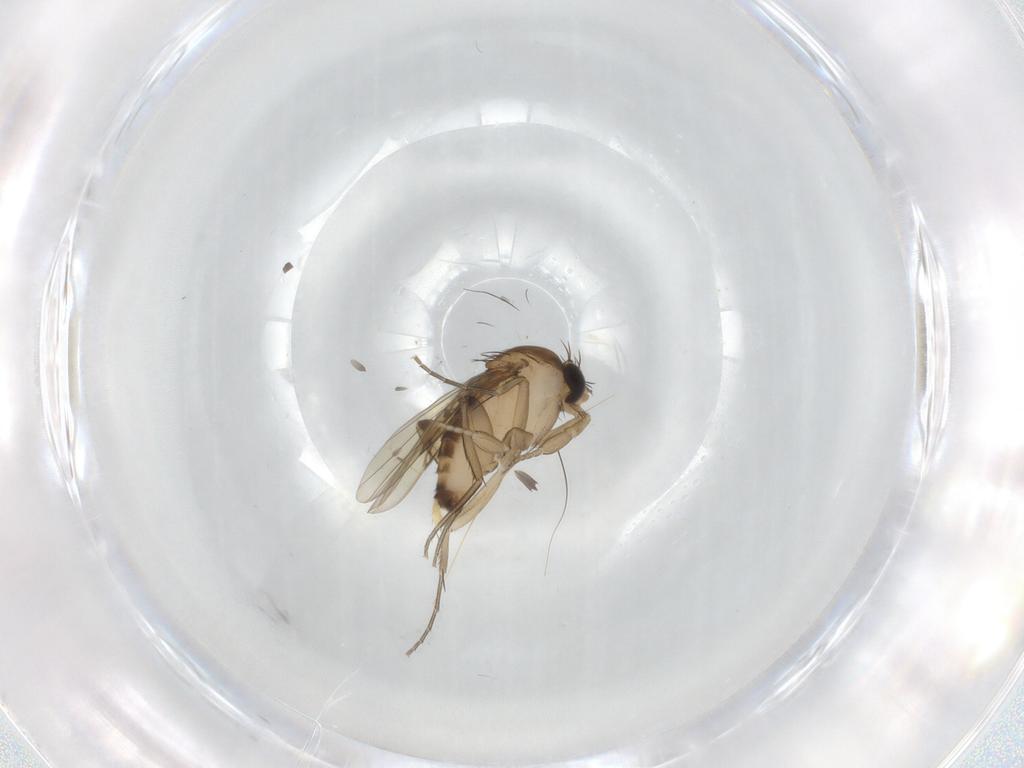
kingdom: Animalia
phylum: Arthropoda
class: Insecta
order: Diptera
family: Phoridae
